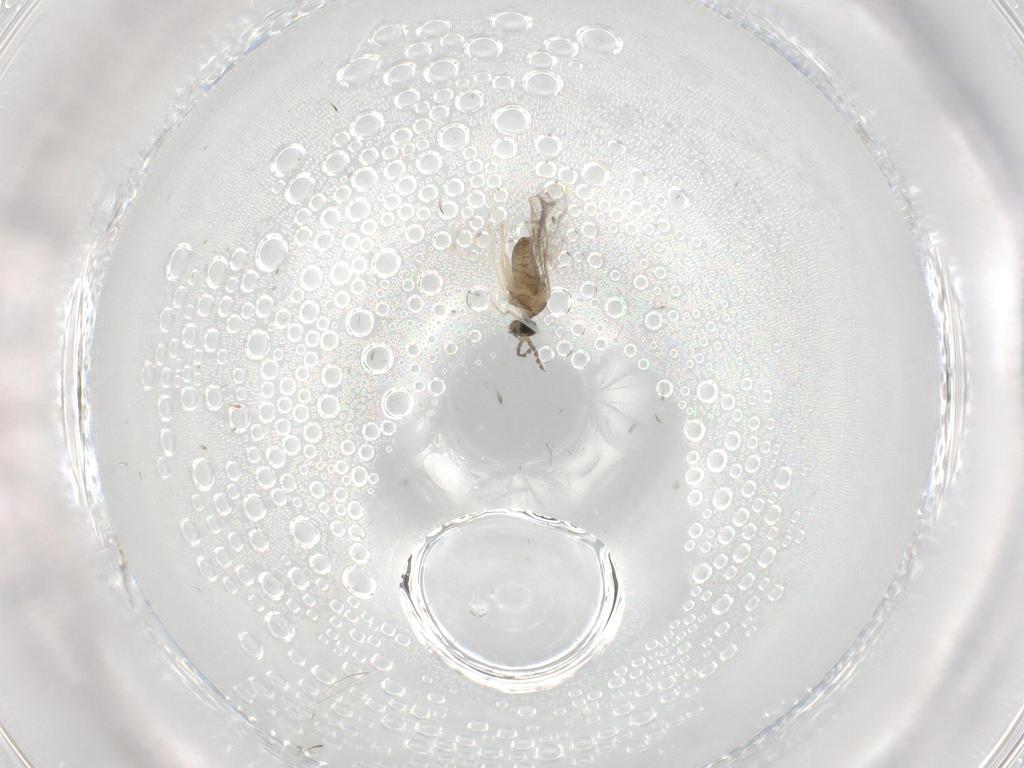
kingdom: Animalia
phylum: Arthropoda
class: Insecta
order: Diptera
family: Cecidomyiidae
